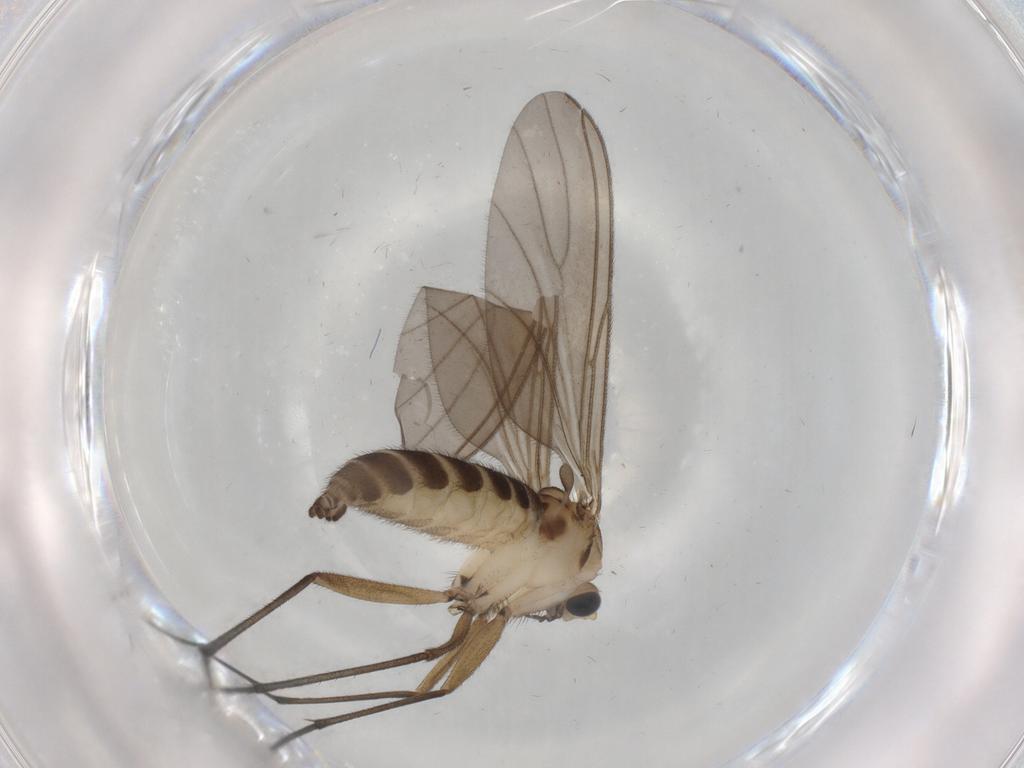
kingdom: Animalia
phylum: Arthropoda
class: Insecta
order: Diptera
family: Sciaridae
